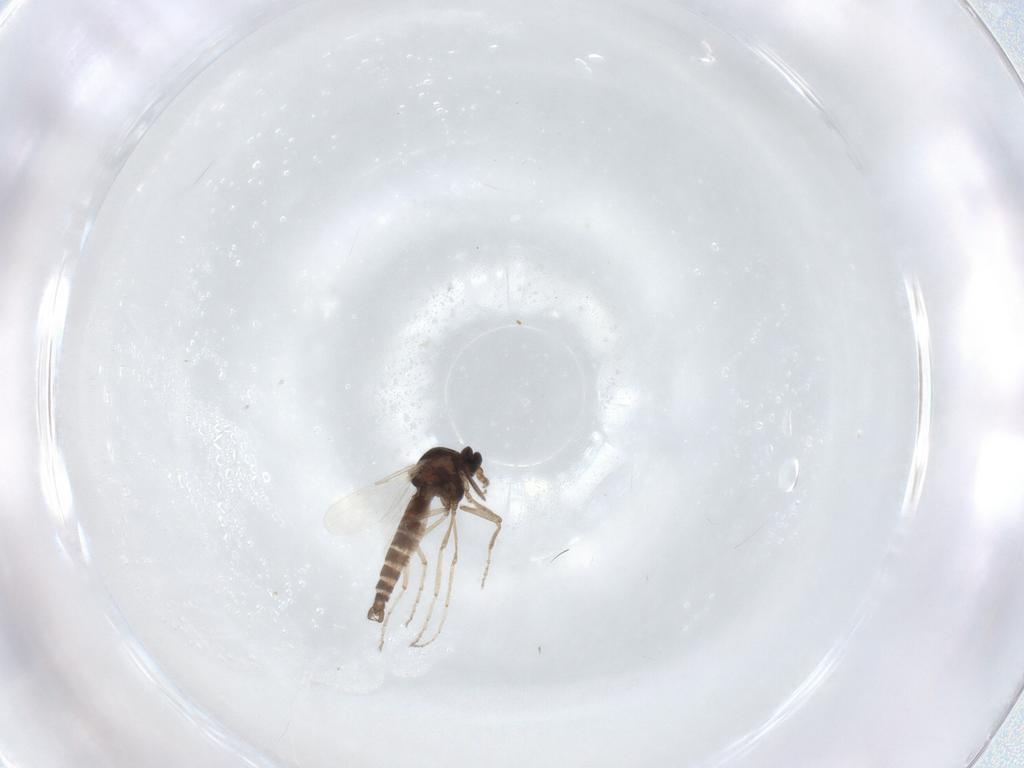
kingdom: Animalia
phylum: Arthropoda
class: Insecta
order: Diptera
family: Ceratopogonidae
